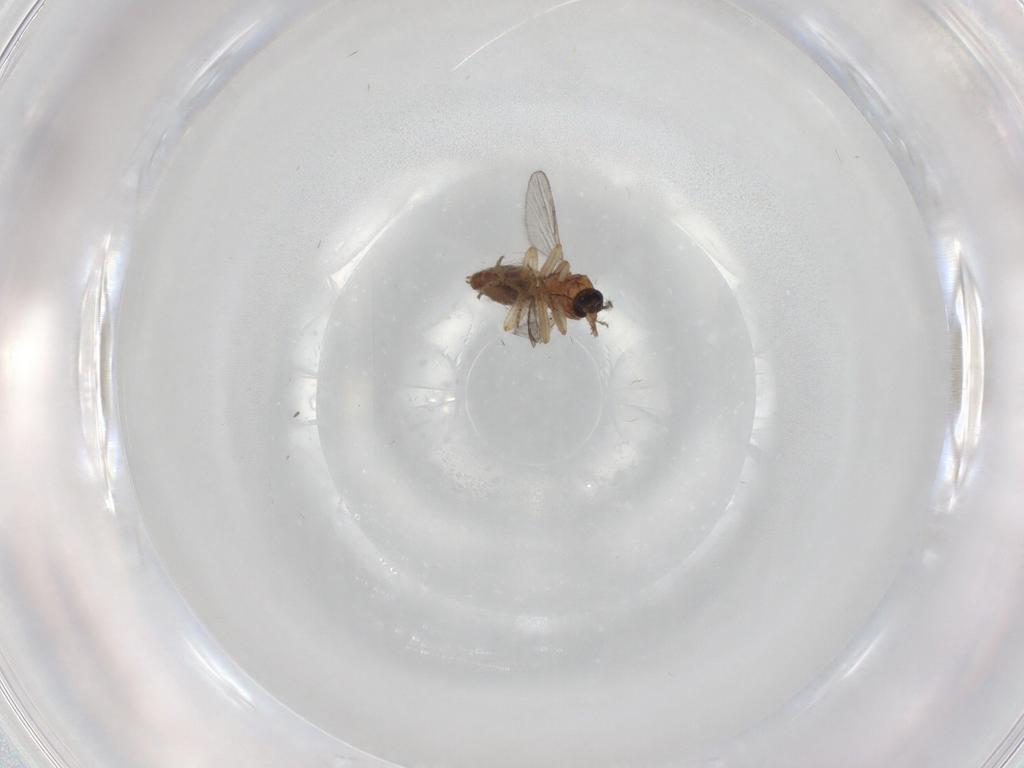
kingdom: Animalia
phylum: Arthropoda
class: Insecta
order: Diptera
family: Ceratopogonidae
